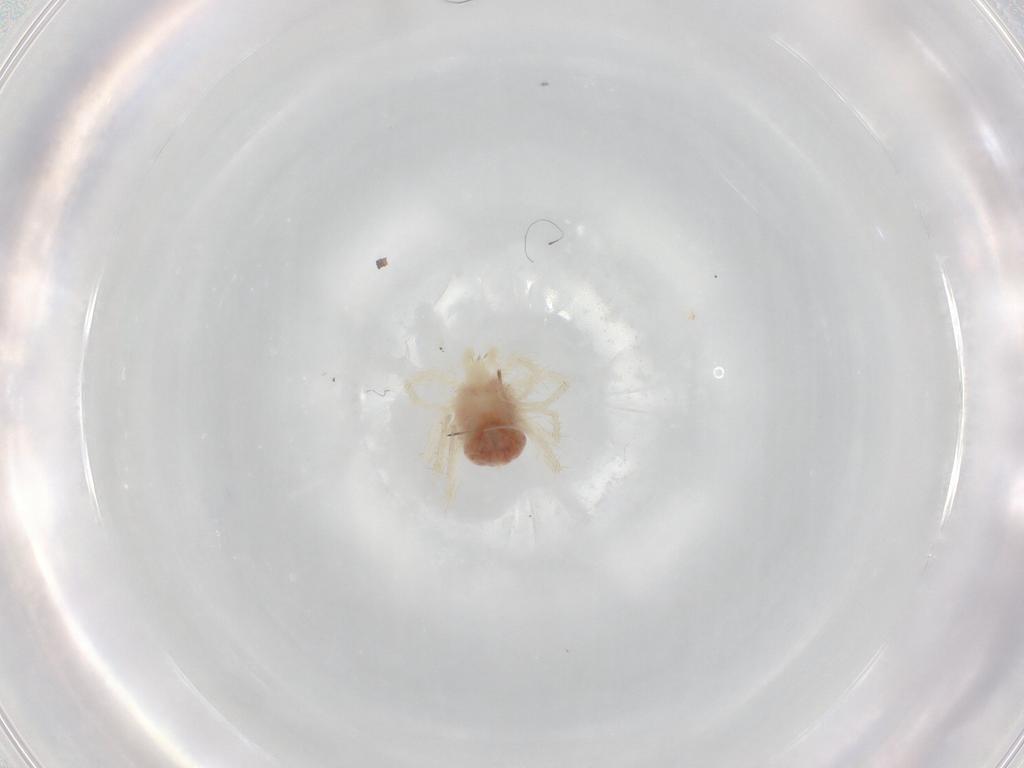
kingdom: Animalia
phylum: Arthropoda
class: Arachnida
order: Trombidiformes
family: Anystidae
